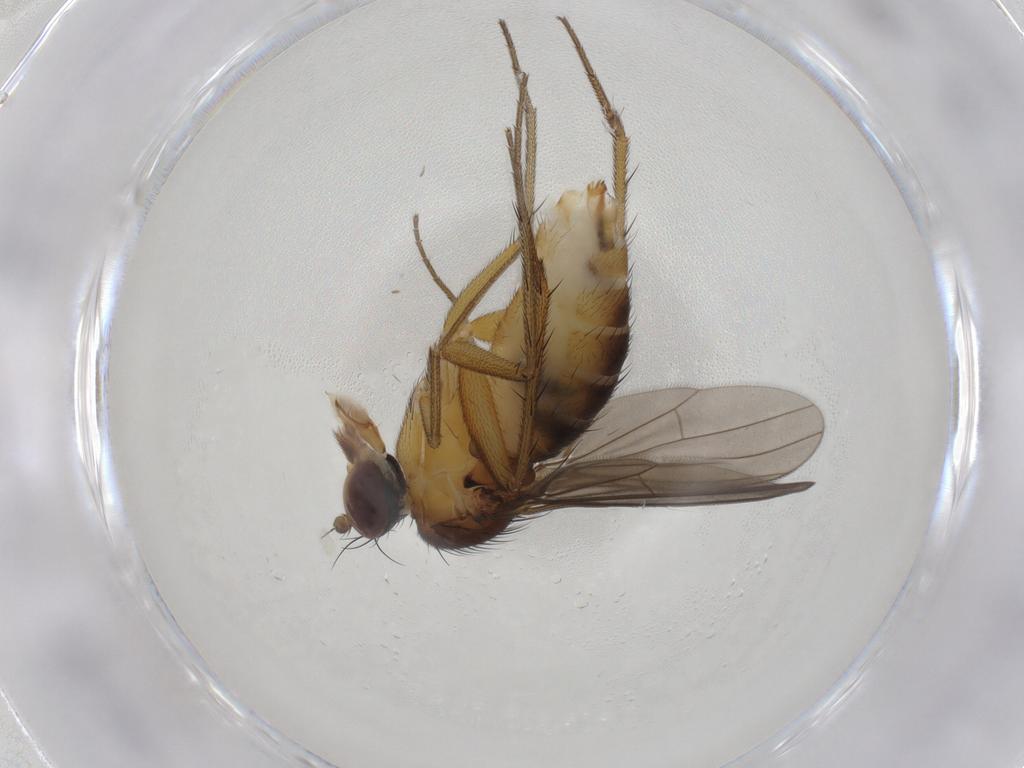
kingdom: Animalia
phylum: Arthropoda
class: Insecta
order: Diptera
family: Dolichopodidae
